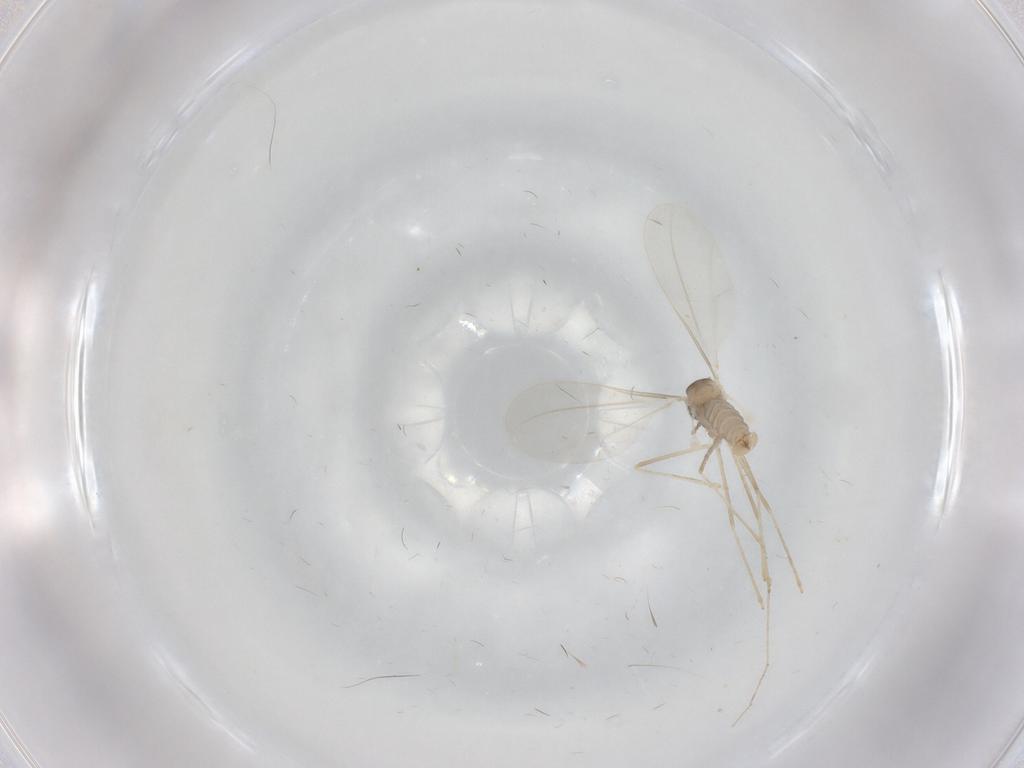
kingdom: Animalia
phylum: Arthropoda
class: Insecta
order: Diptera
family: Cecidomyiidae
